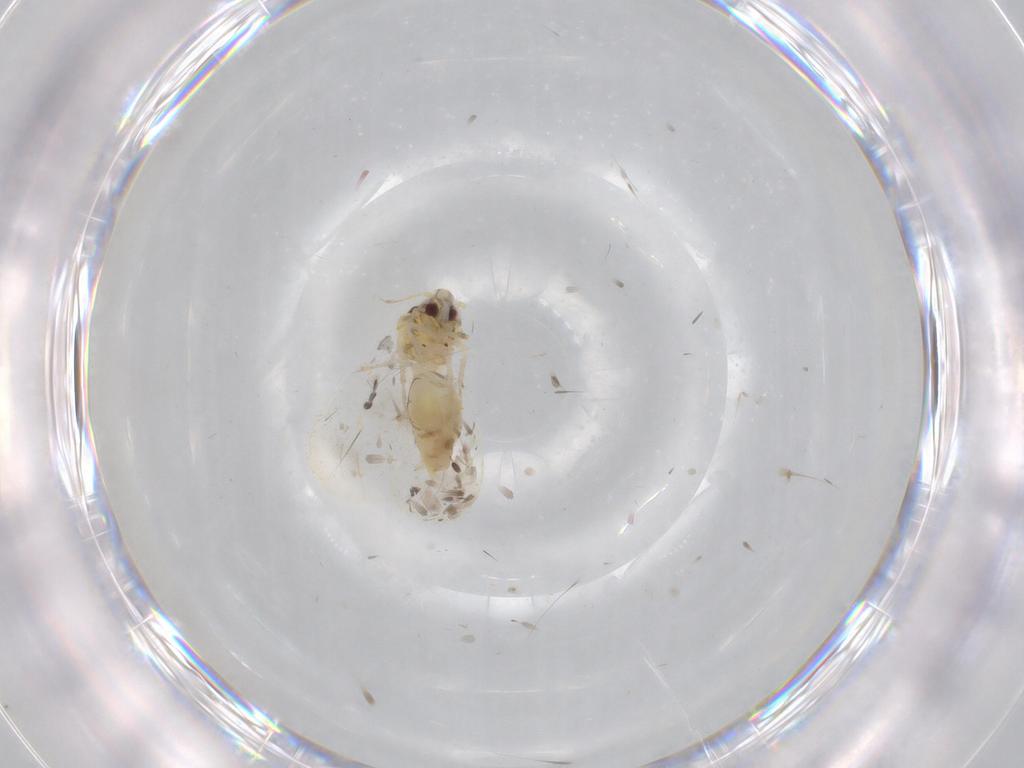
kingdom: Animalia
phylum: Arthropoda
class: Insecta
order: Hemiptera
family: Aleyrodidae
